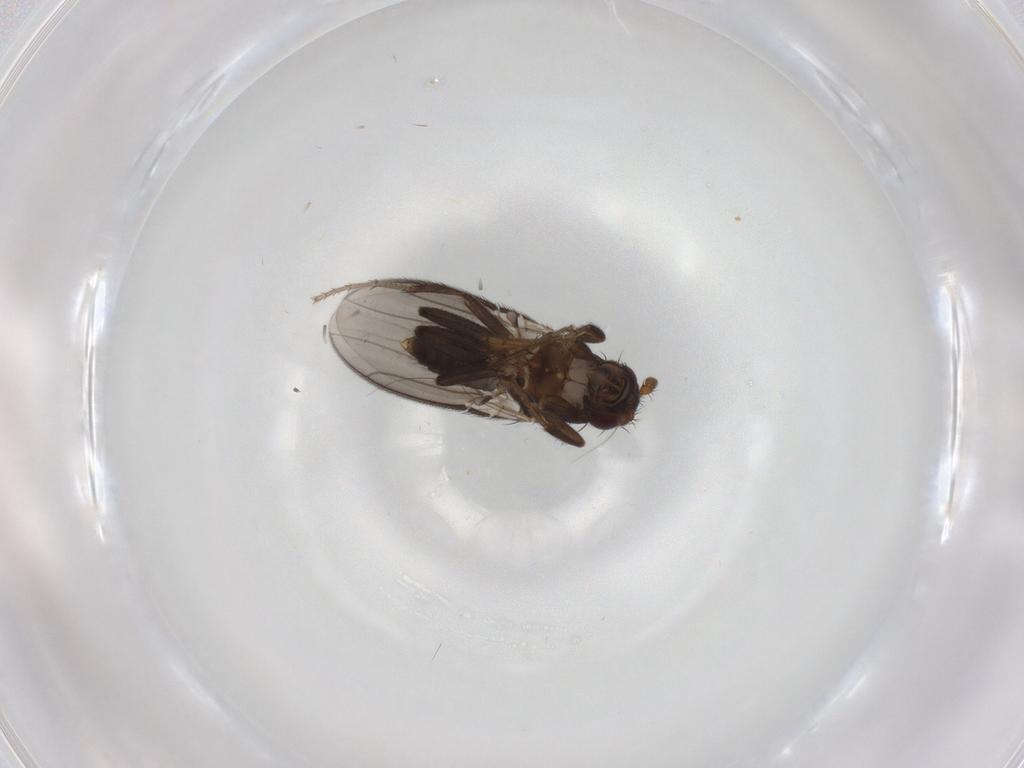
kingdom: Animalia
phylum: Arthropoda
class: Insecta
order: Diptera
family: Sphaeroceridae
